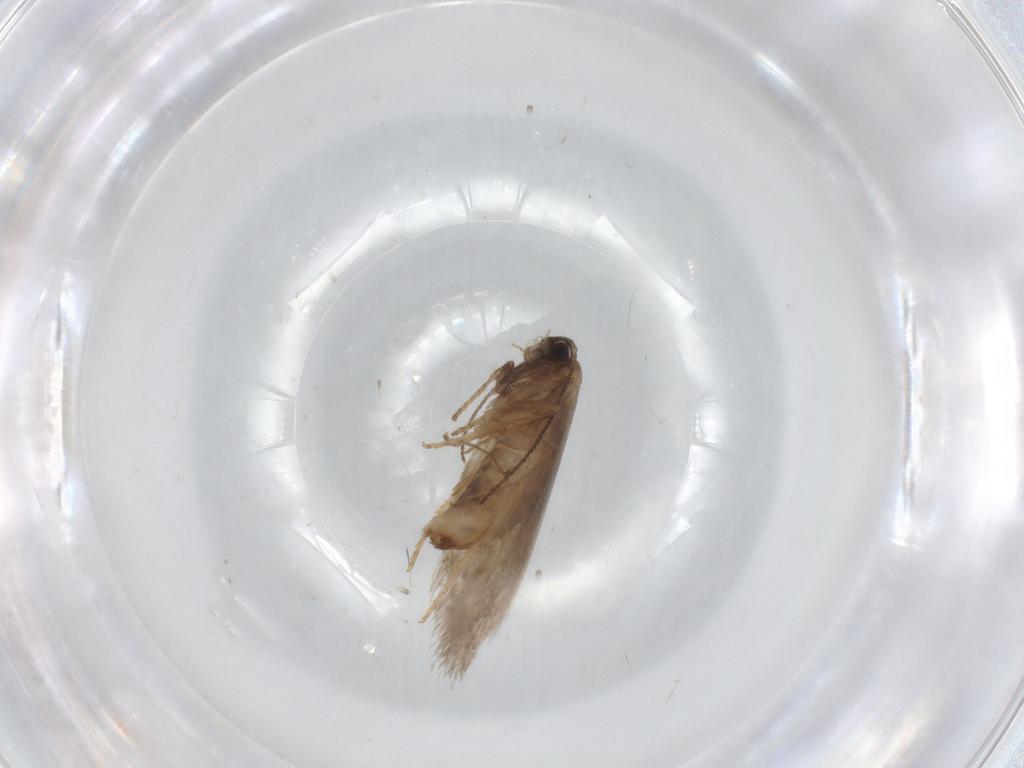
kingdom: Animalia
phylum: Arthropoda
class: Insecta
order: Lepidoptera
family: Nepticulidae
